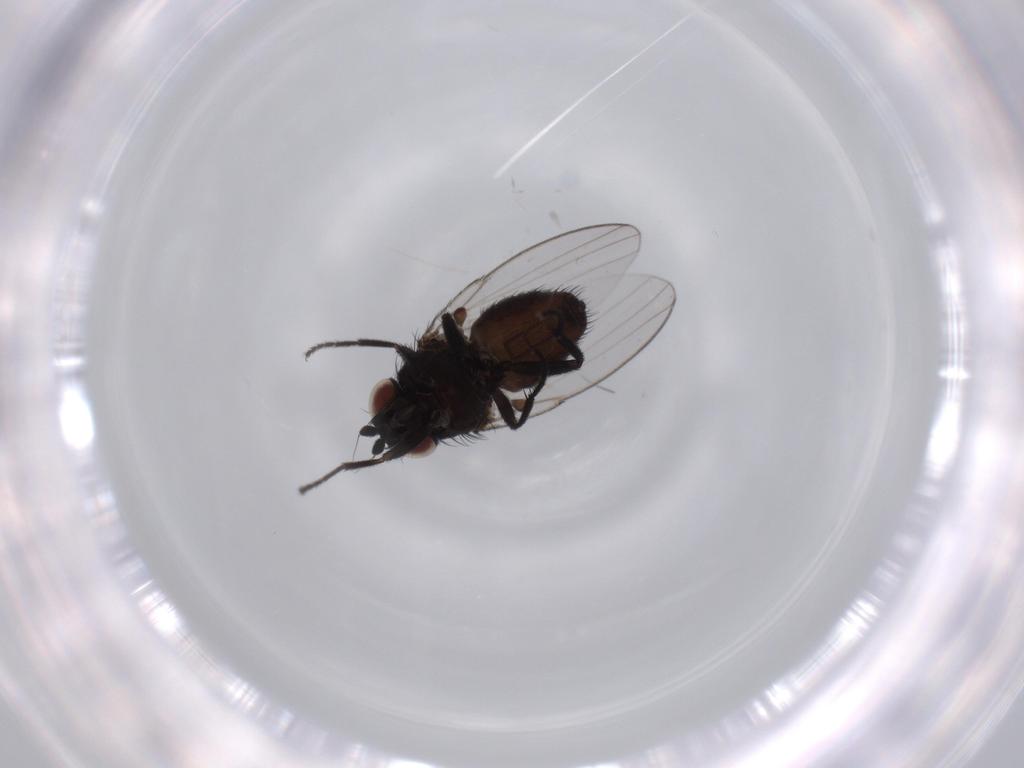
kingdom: Animalia
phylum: Arthropoda
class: Insecta
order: Diptera
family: Milichiidae
